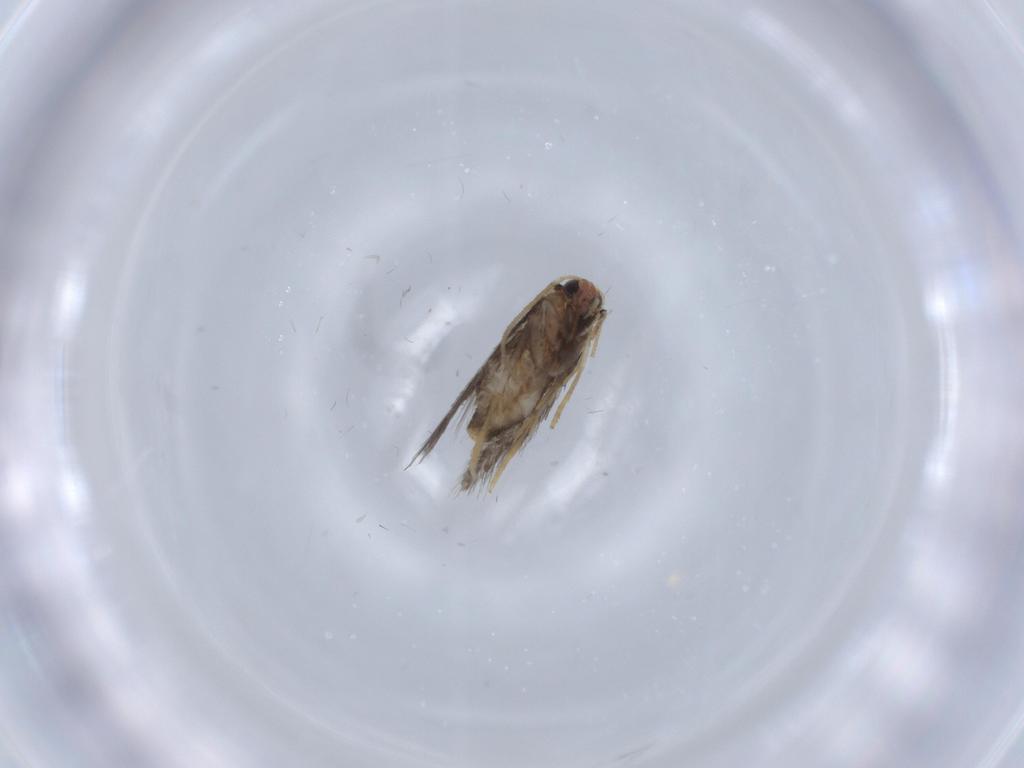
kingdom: Animalia
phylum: Arthropoda
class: Insecta
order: Lepidoptera
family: Nepticulidae
